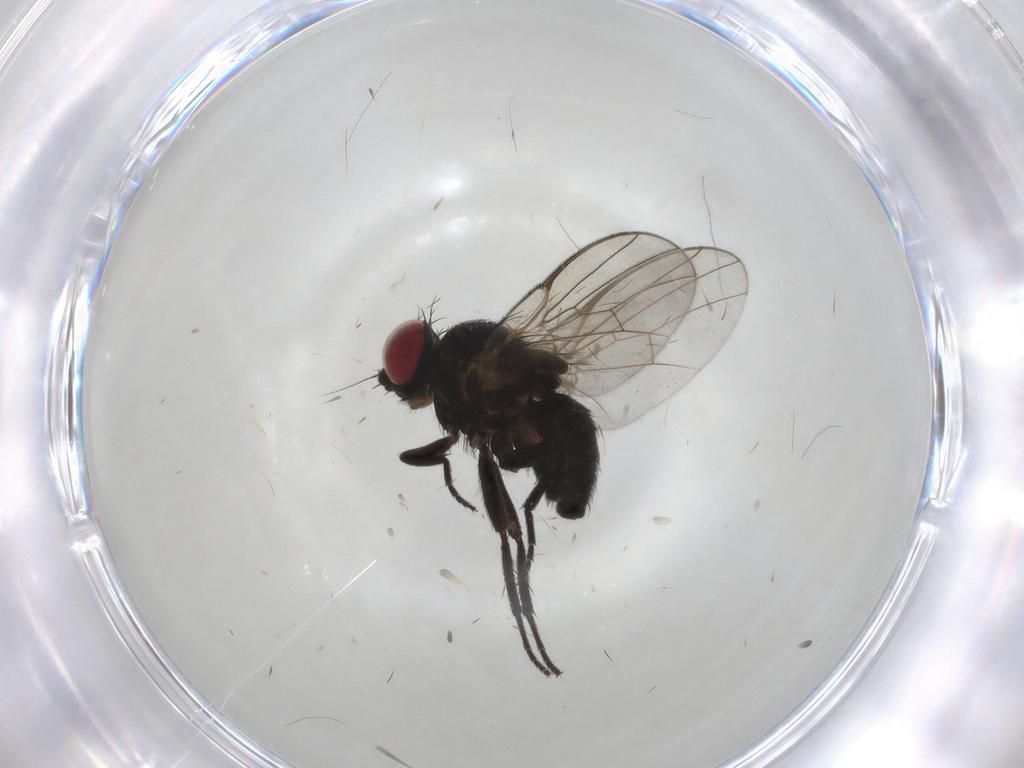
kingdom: Animalia
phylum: Arthropoda
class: Insecta
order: Diptera
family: Agromyzidae
